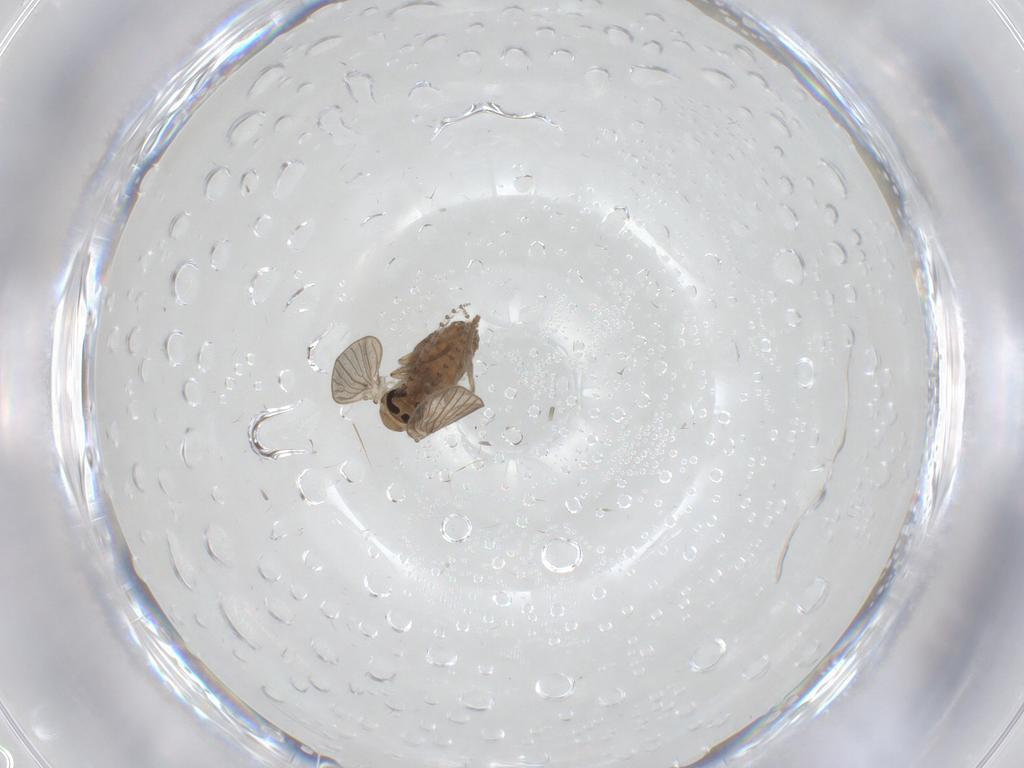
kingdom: Animalia
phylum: Arthropoda
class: Insecta
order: Diptera
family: Psychodidae
